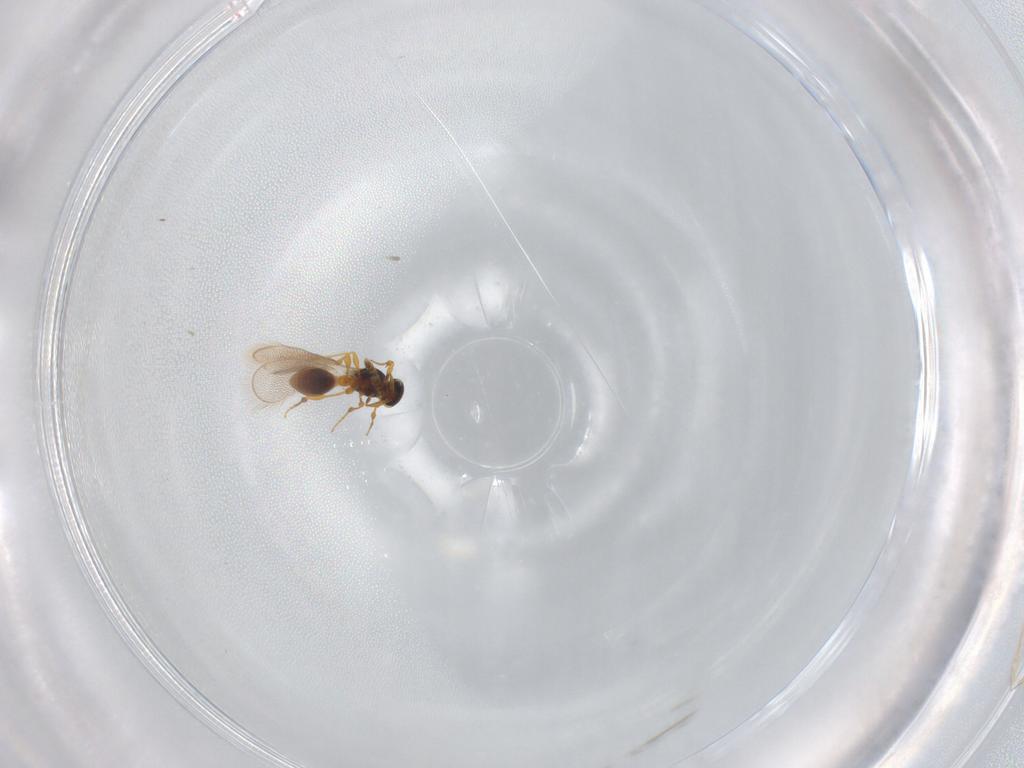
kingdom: Animalia
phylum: Arthropoda
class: Insecta
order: Hymenoptera
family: Platygastridae
